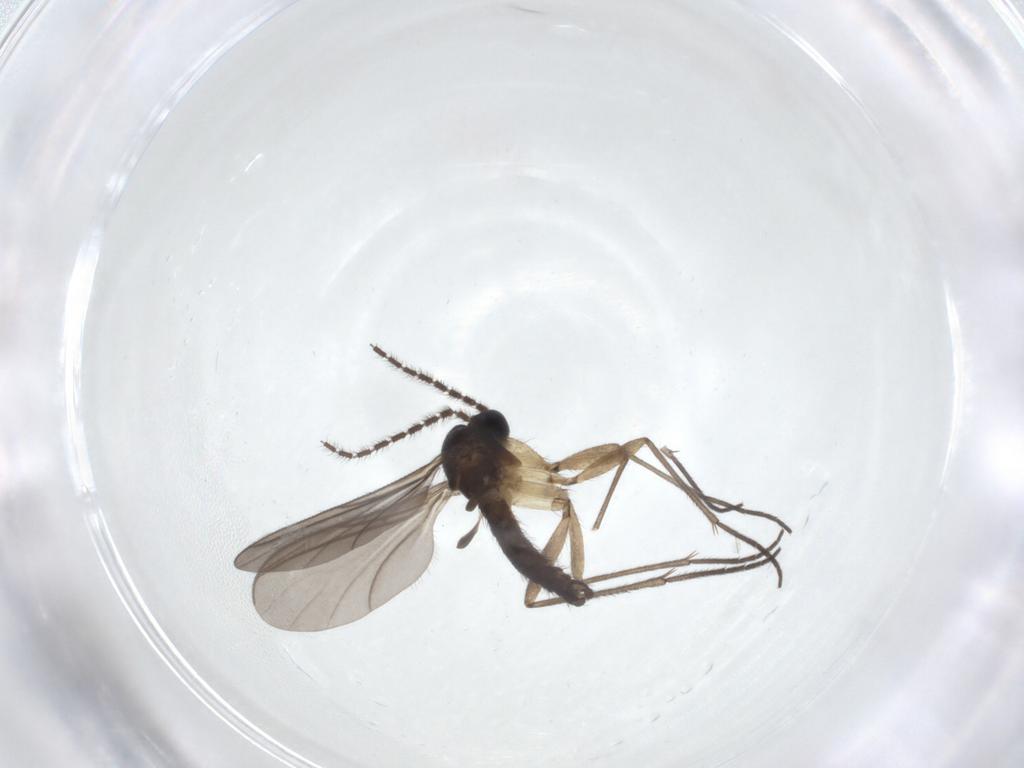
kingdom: Animalia
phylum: Arthropoda
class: Insecta
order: Diptera
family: Sciaridae
